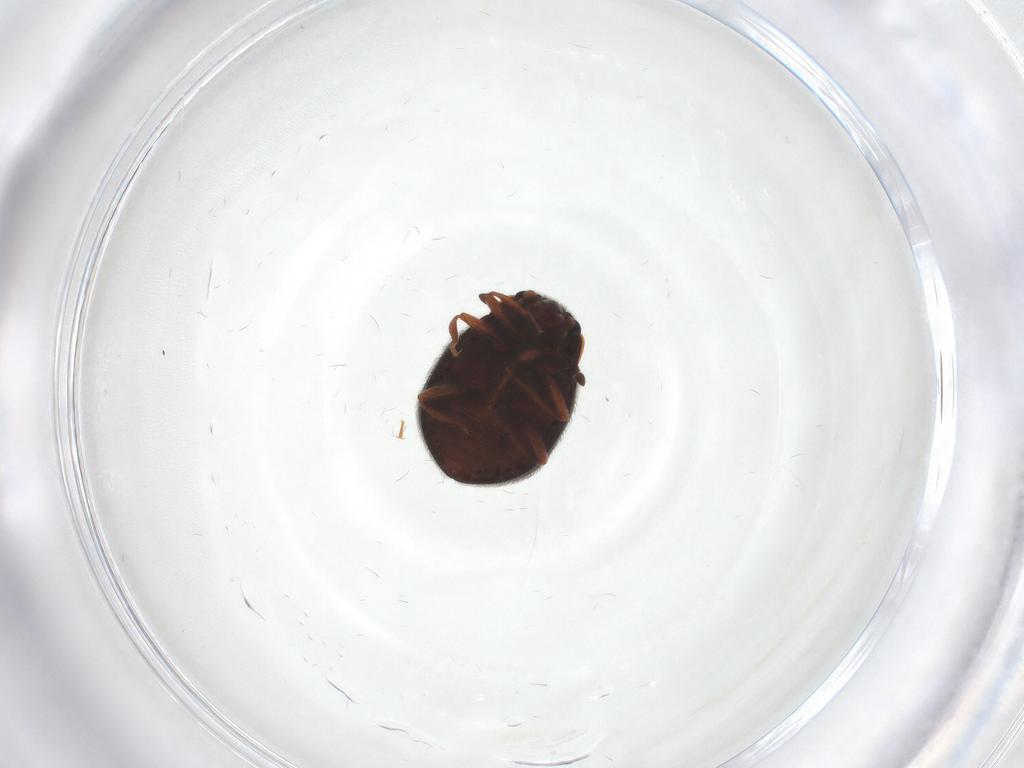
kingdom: Animalia
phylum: Arthropoda
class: Insecta
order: Coleoptera
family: Sphindidae
